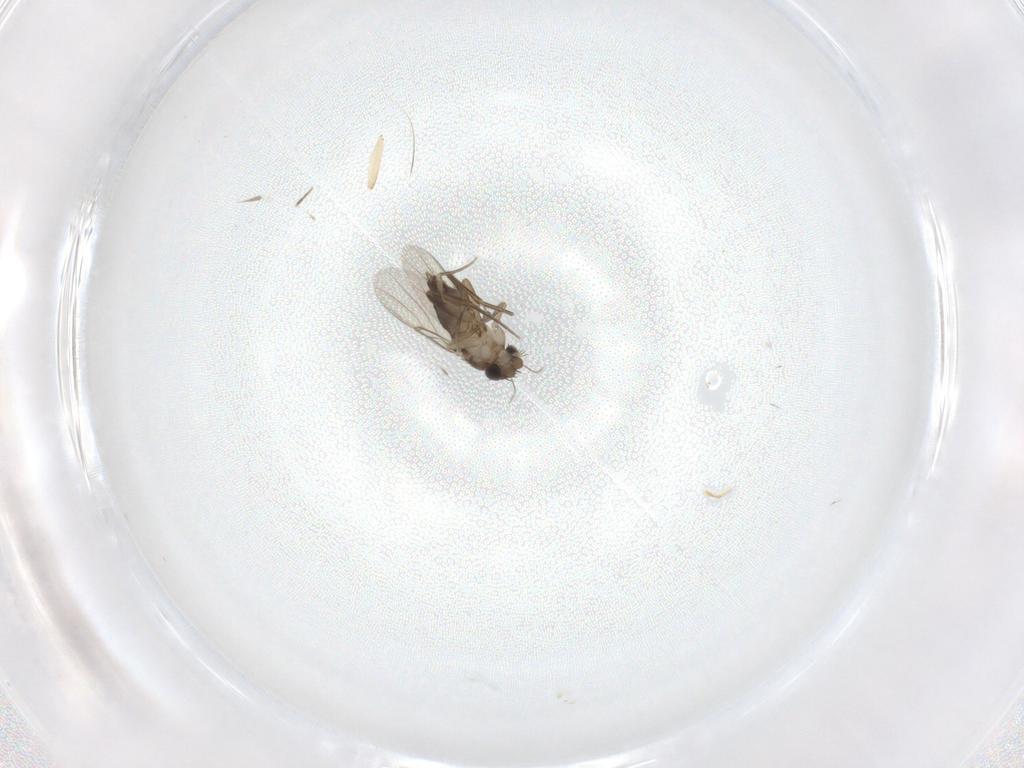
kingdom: Animalia
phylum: Arthropoda
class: Insecta
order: Diptera
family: Phoridae
